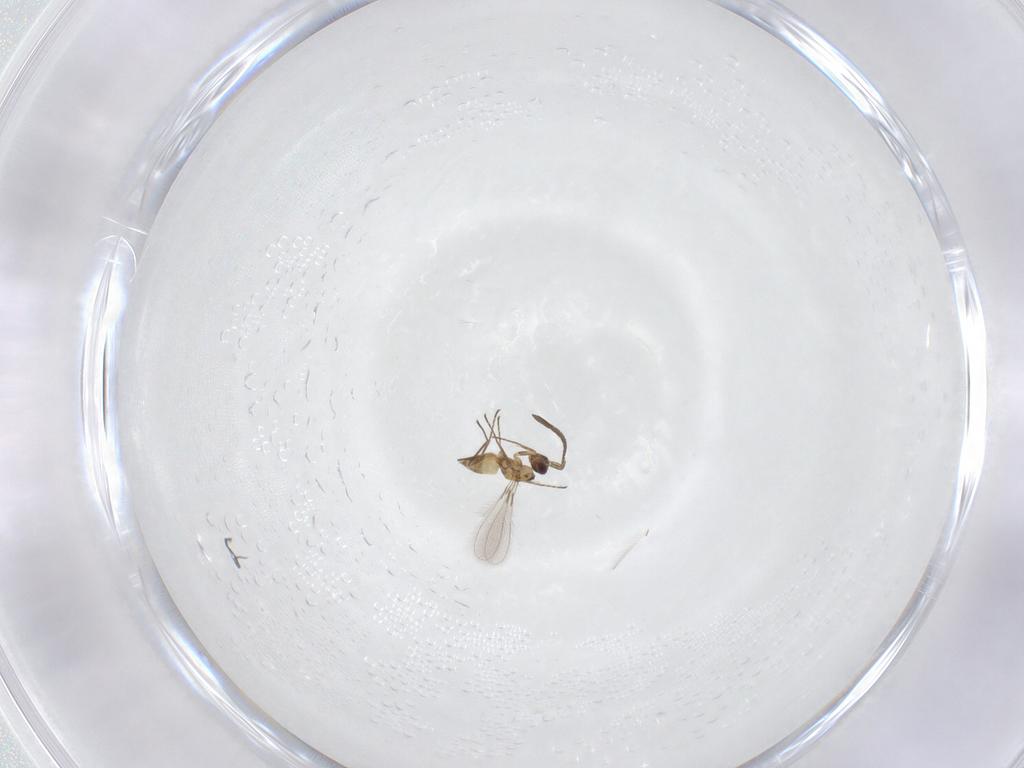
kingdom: Animalia
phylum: Arthropoda
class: Insecta
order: Hymenoptera
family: Mymaridae
